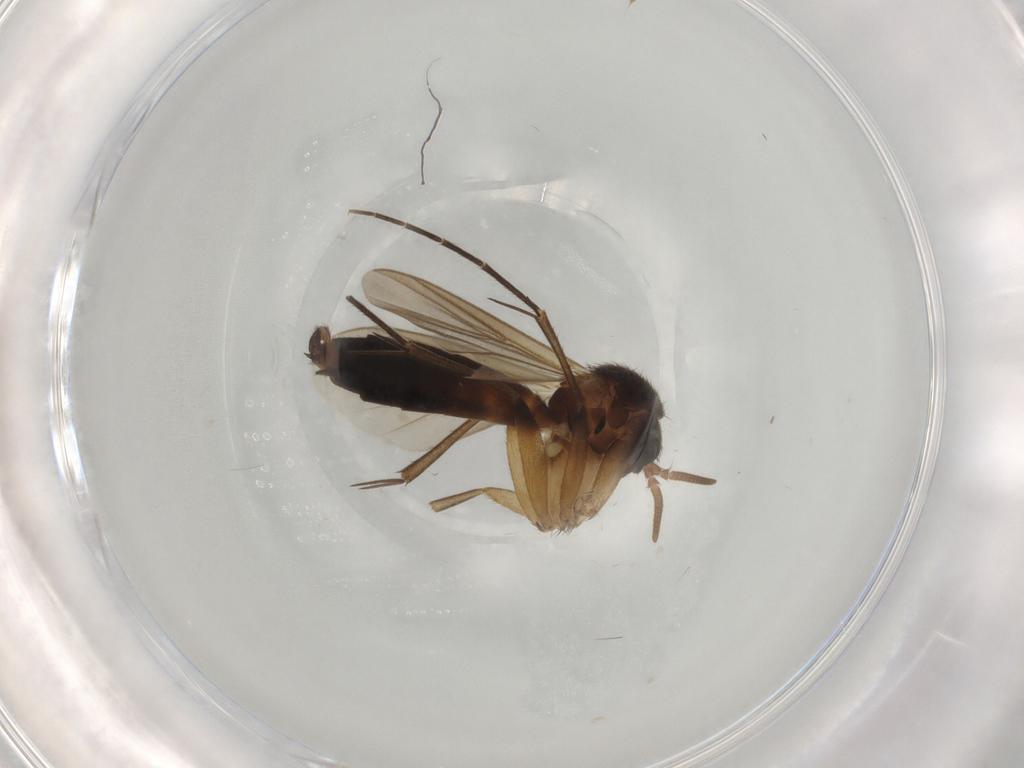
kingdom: Animalia
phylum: Arthropoda
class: Insecta
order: Diptera
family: Mycetophilidae
